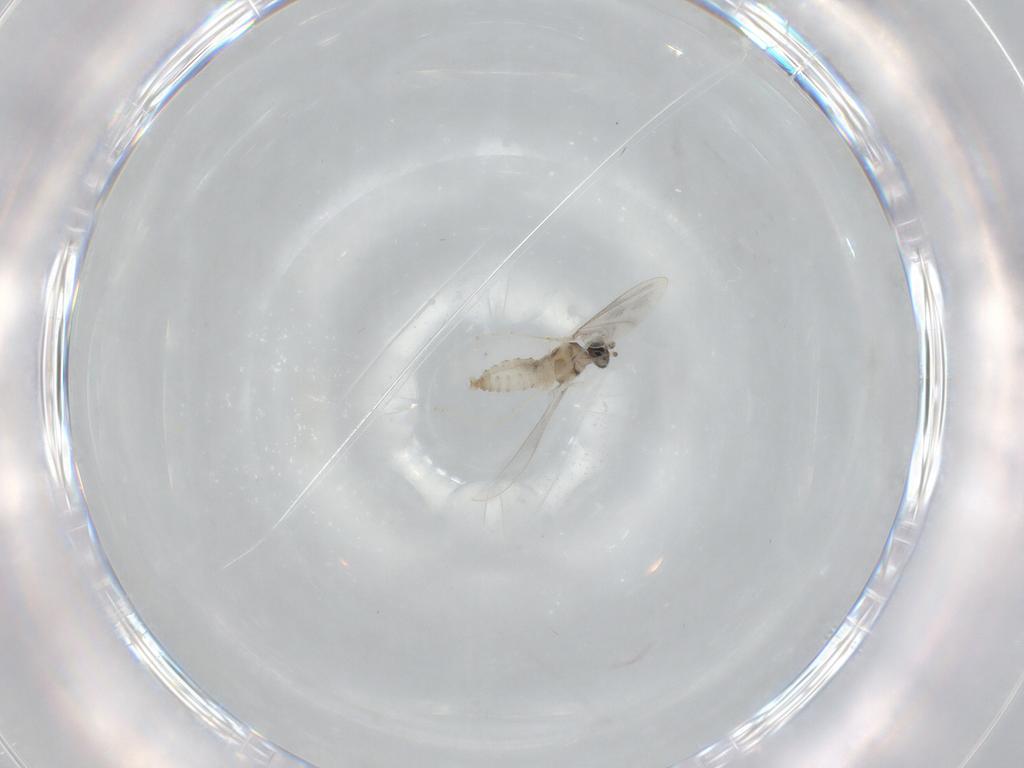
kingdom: Animalia
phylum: Arthropoda
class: Insecta
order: Diptera
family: Cecidomyiidae
